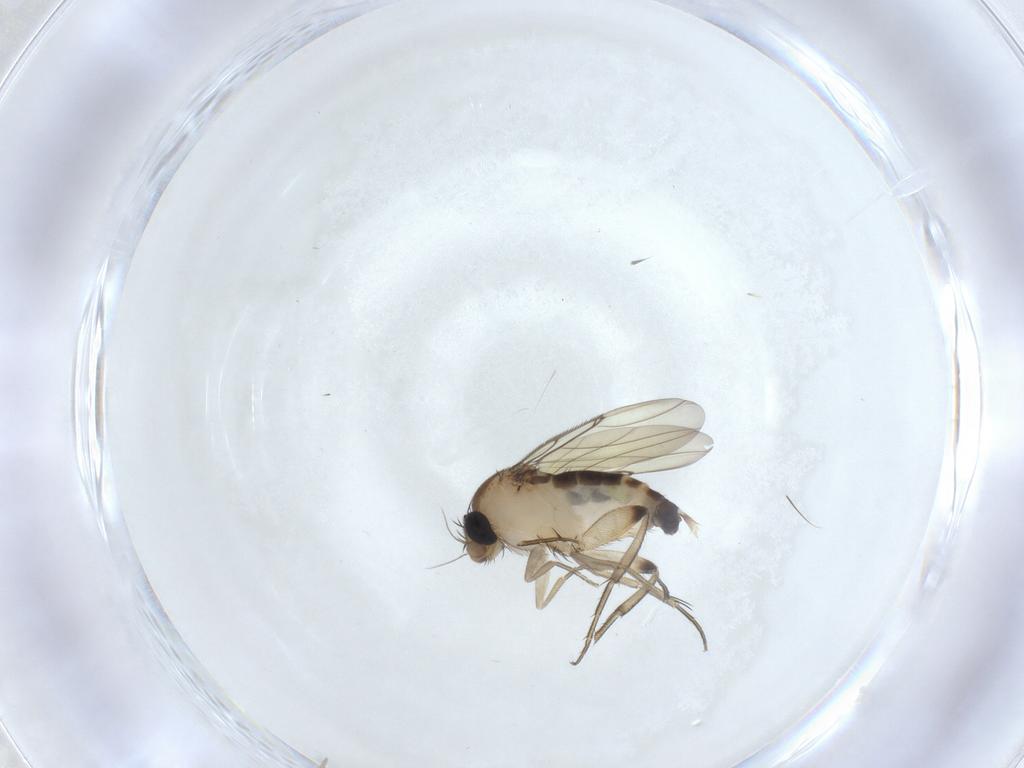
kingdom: Animalia
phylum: Arthropoda
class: Insecta
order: Diptera
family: Phoridae
